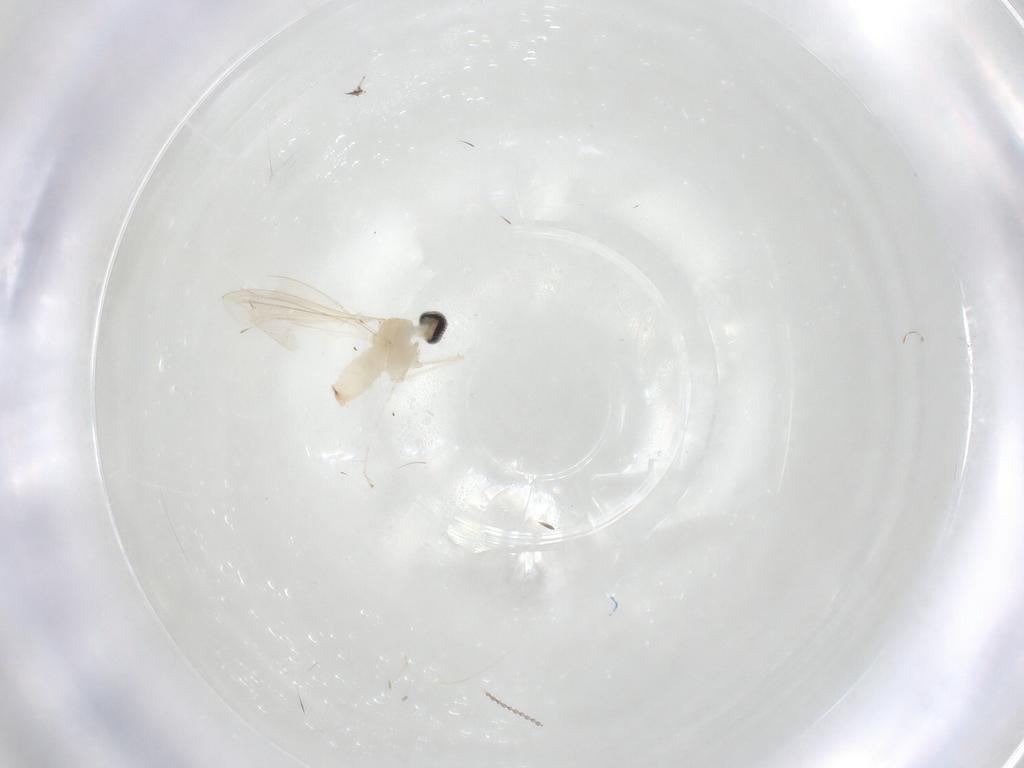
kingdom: Animalia
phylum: Arthropoda
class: Insecta
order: Diptera
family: Cecidomyiidae
